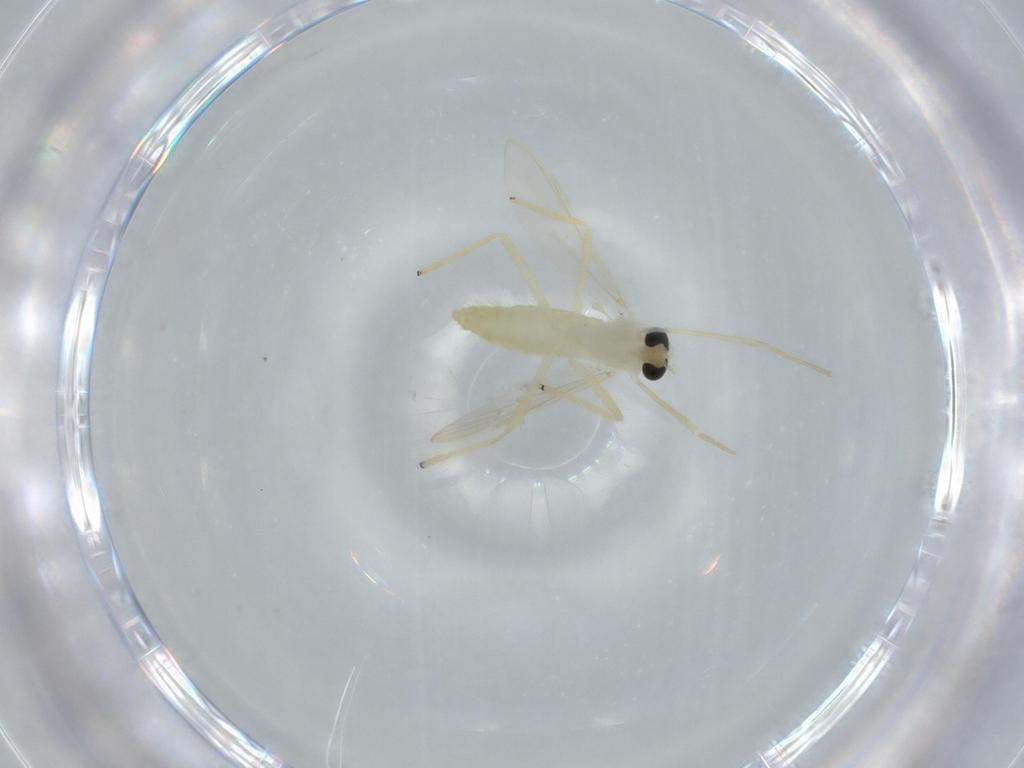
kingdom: Animalia
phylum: Arthropoda
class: Insecta
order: Diptera
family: Chironomidae
